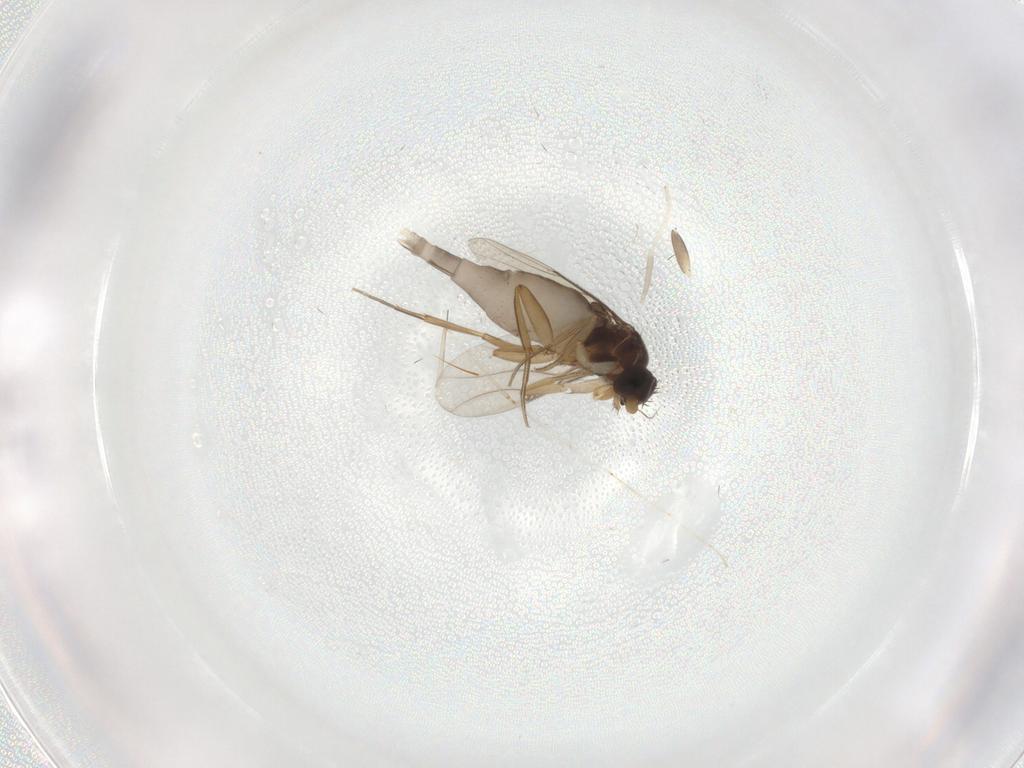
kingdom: Animalia
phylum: Arthropoda
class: Insecta
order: Diptera
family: Phoridae
